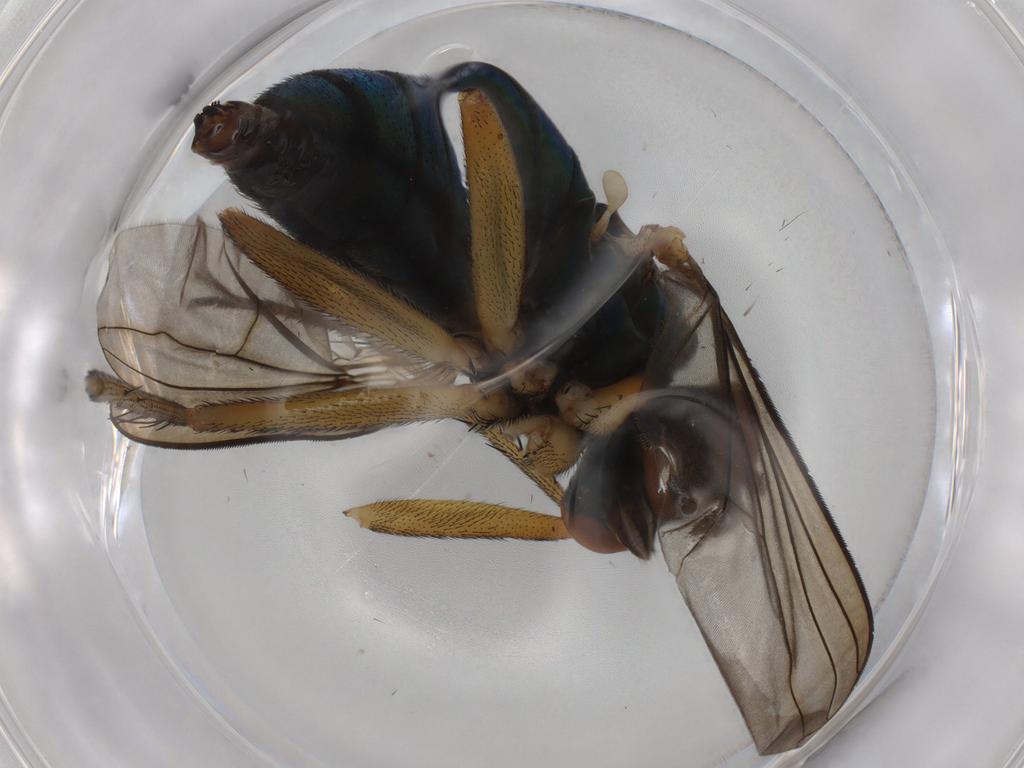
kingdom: Animalia
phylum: Arthropoda
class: Insecta
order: Diptera
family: Dolichopodidae
